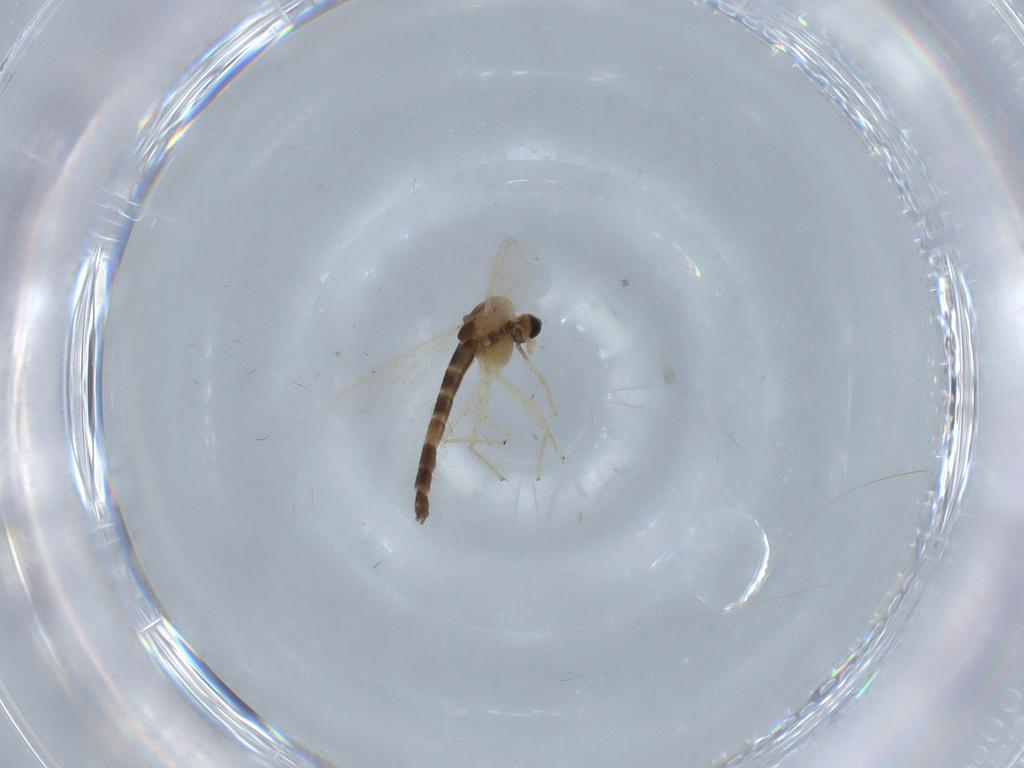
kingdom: Animalia
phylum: Arthropoda
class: Insecta
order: Diptera
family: Chironomidae
